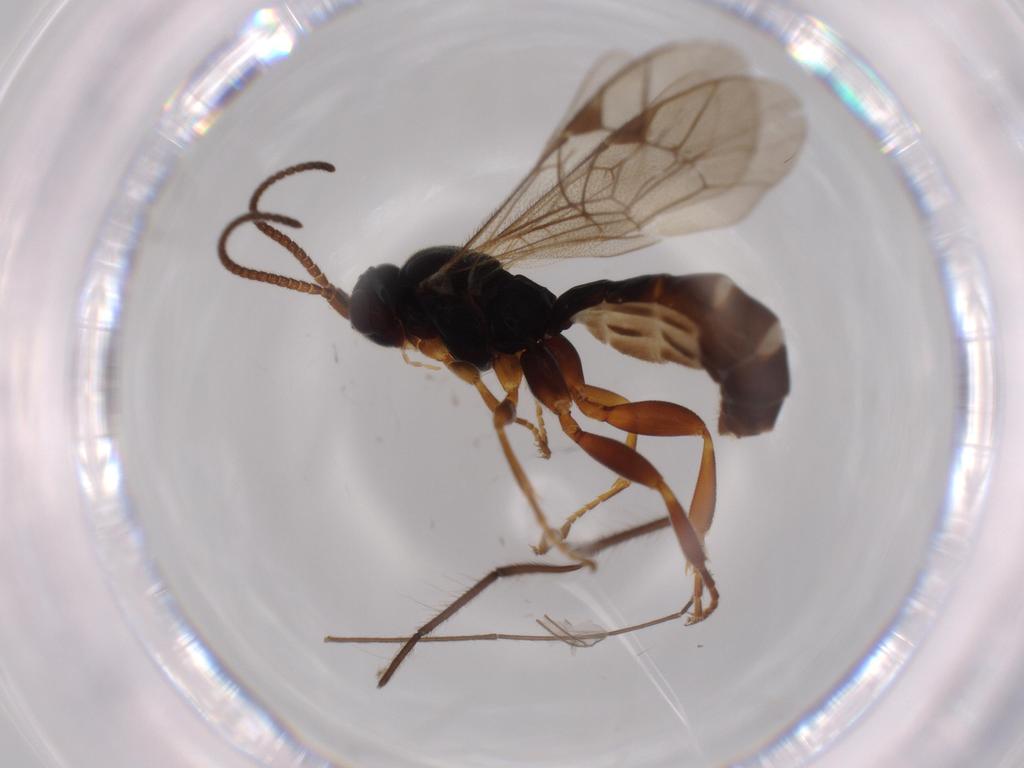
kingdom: Animalia
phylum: Arthropoda
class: Insecta
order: Hymenoptera
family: Ichneumonidae
